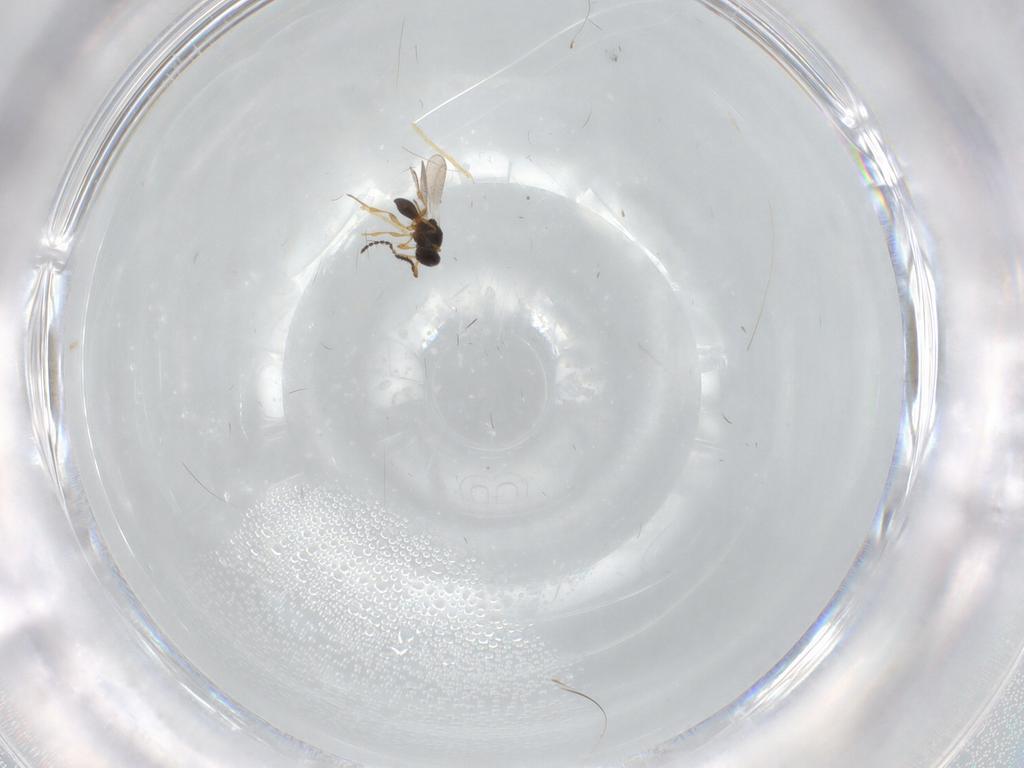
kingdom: Animalia
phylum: Arthropoda
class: Insecta
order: Hymenoptera
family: Platygastridae
